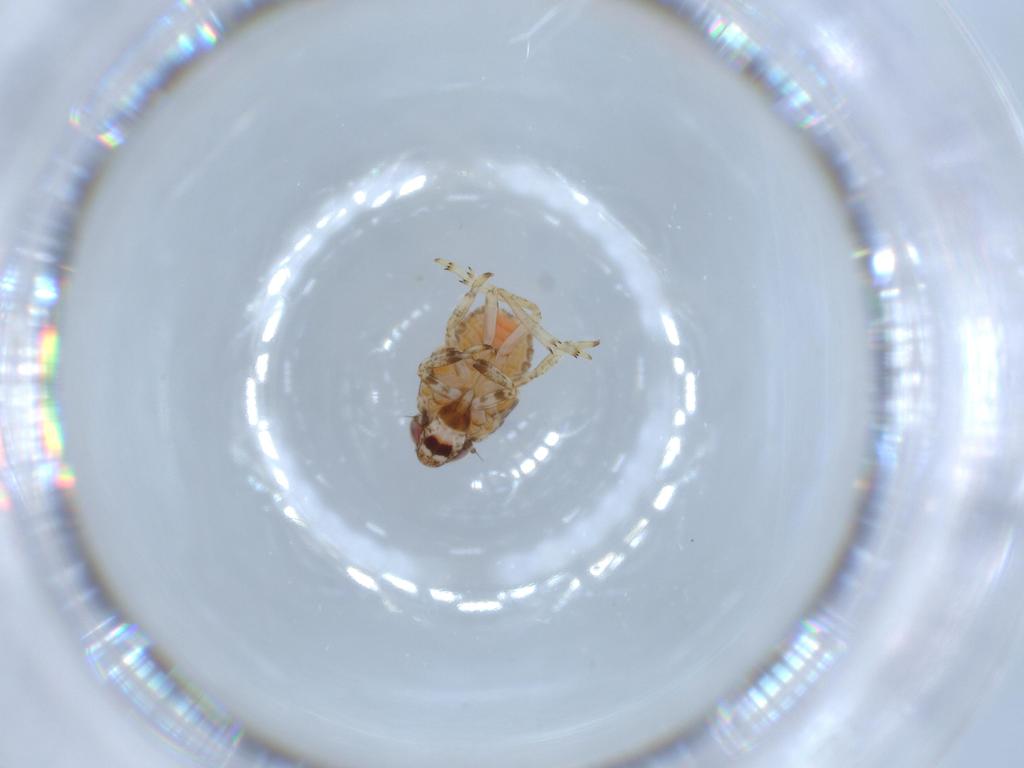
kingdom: Animalia
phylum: Arthropoda
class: Insecta
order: Hemiptera
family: Issidae
